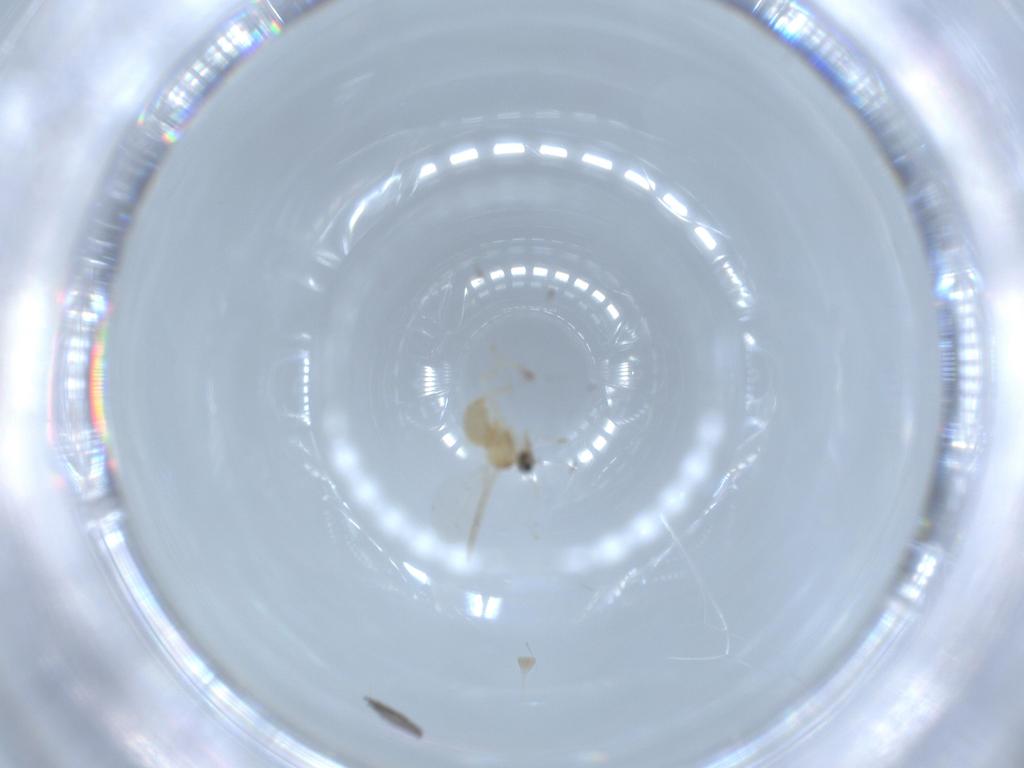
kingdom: Animalia
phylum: Arthropoda
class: Insecta
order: Diptera
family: Cecidomyiidae
